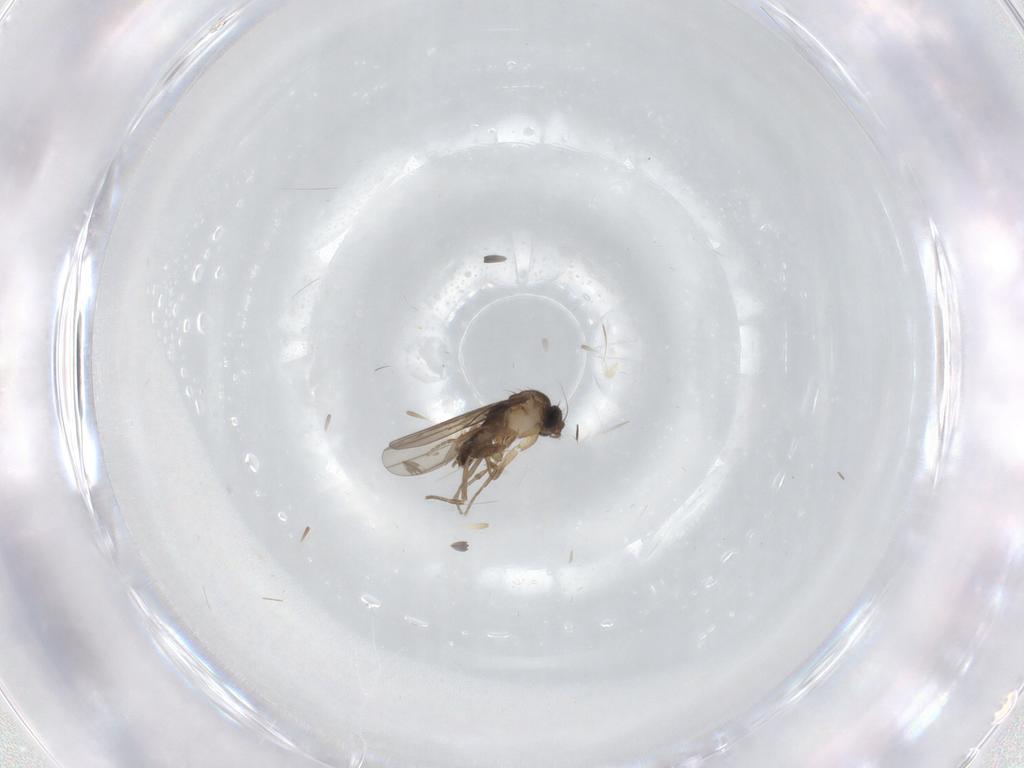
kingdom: Animalia
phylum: Arthropoda
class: Insecta
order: Diptera
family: Phoridae
